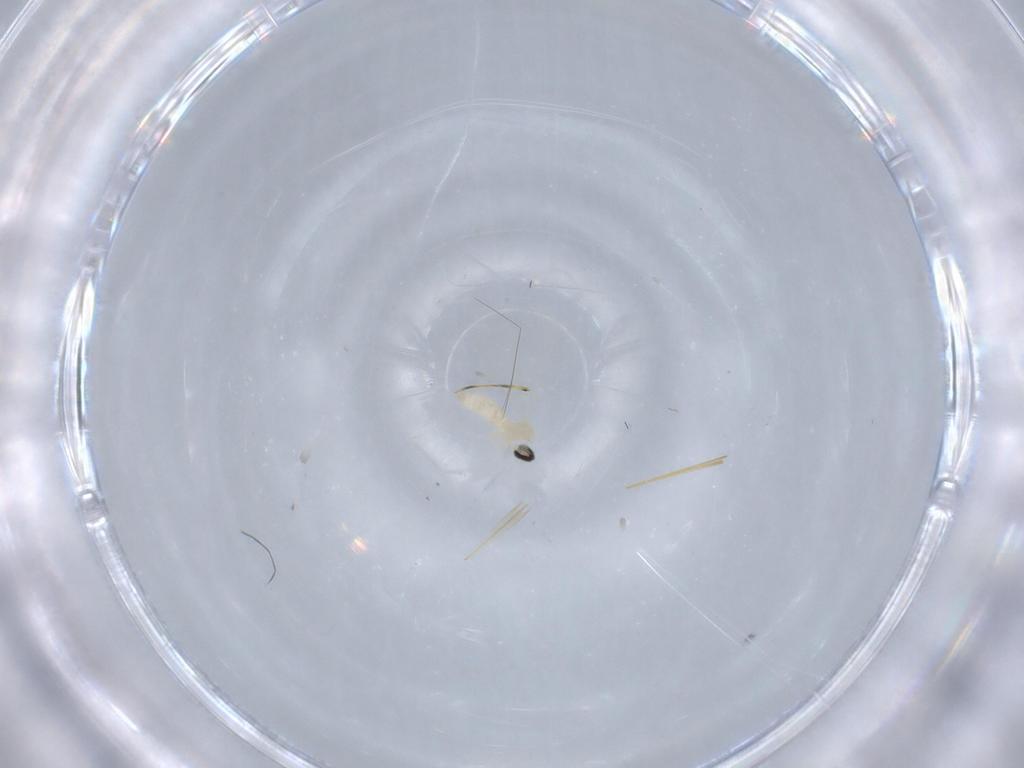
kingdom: Animalia
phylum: Arthropoda
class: Insecta
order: Diptera
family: Cecidomyiidae
